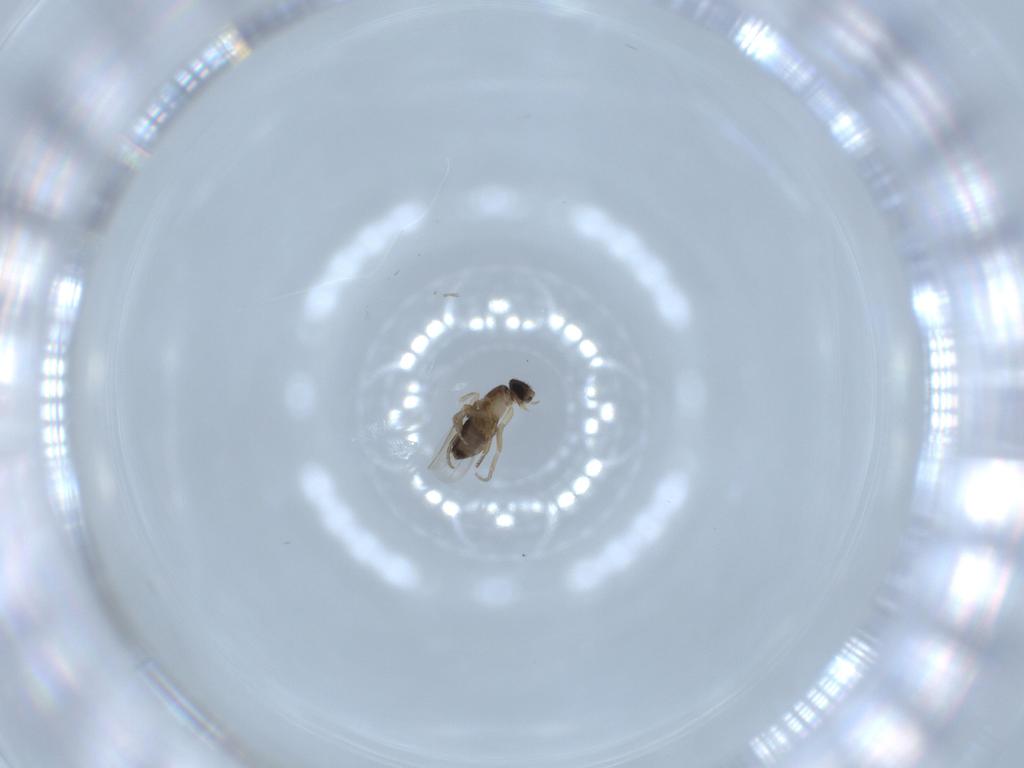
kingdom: Animalia
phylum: Arthropoda
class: Insecta
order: Diptera
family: Phoridae
